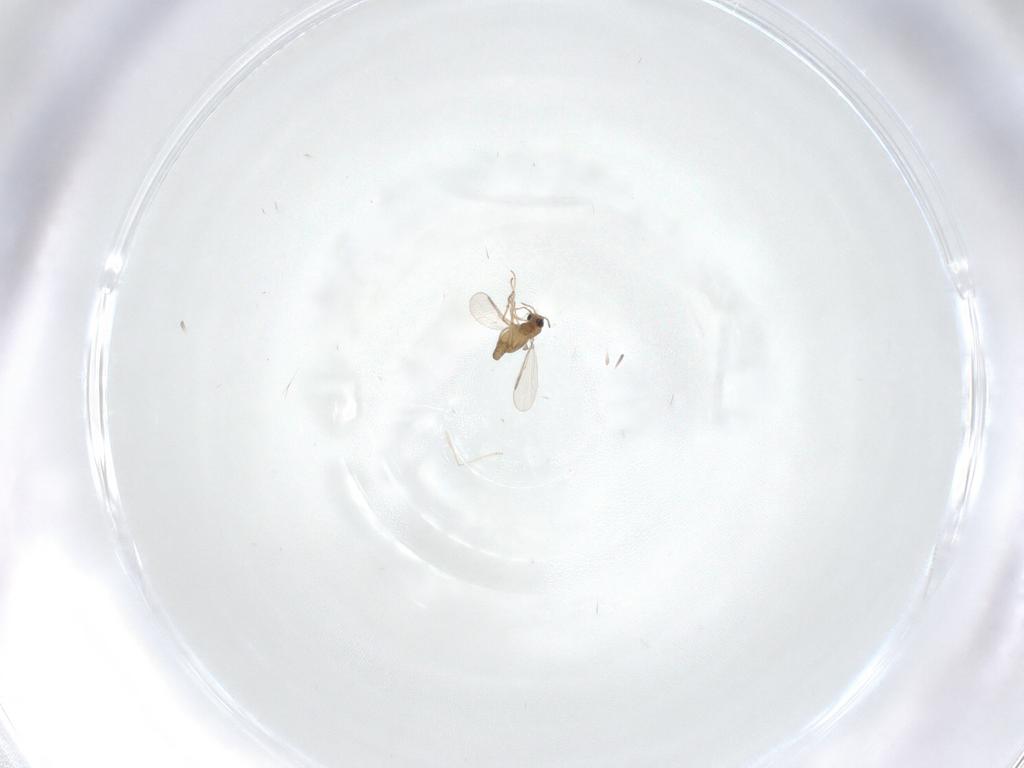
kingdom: Animalia
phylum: Arthropoda
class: Insecta
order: Diptera
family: Chironomidae
